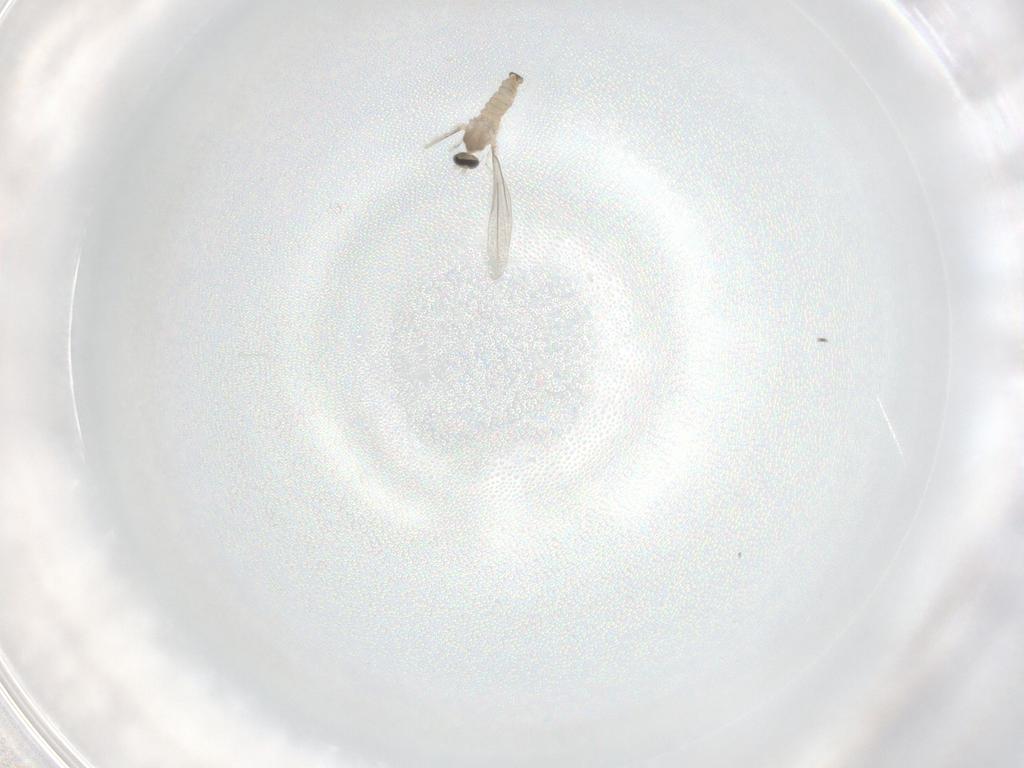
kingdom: Animalia
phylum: Arthropoda
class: Insecta
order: Diptera
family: Cecidomyiidae
